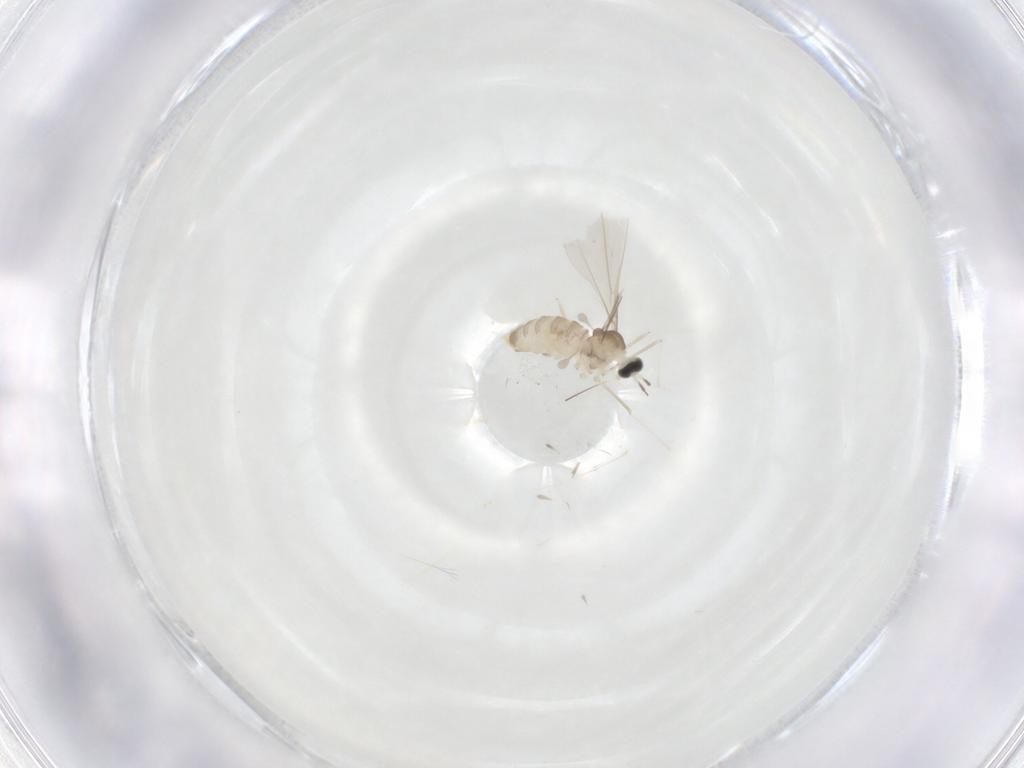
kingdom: Animalia
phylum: Arthropoda
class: Insecta
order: Diptera
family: Cecidomyiidae
